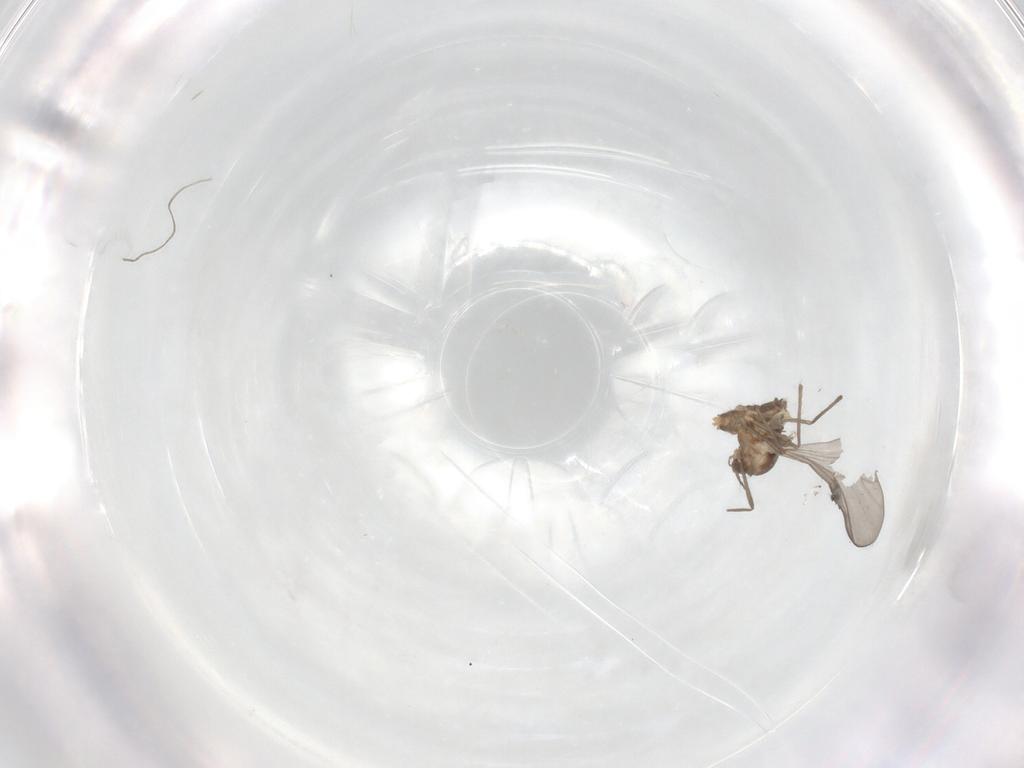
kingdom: Animalia
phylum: Arthropoda
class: Insecta
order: Diptera
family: Chironomidae
